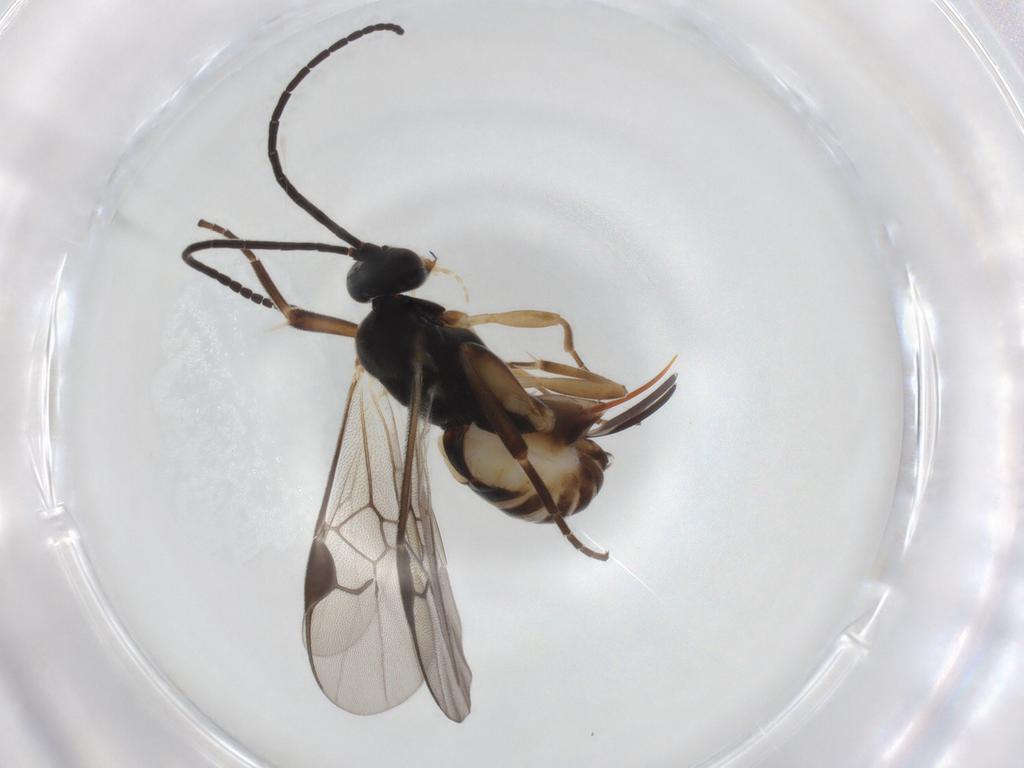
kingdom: Animalia
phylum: Arthropoda
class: Insecta
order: Hymenoptera
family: Braconidae
